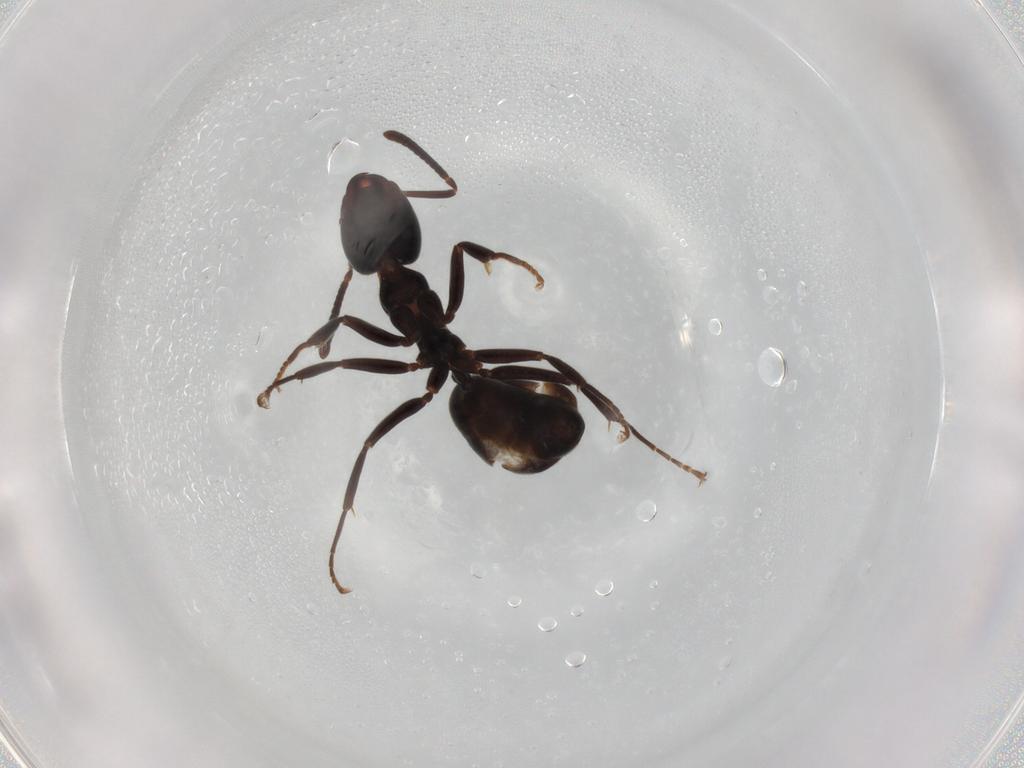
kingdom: Animalia
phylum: Arthropoda
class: Insecta
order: Hymenoptera
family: Formicidae
